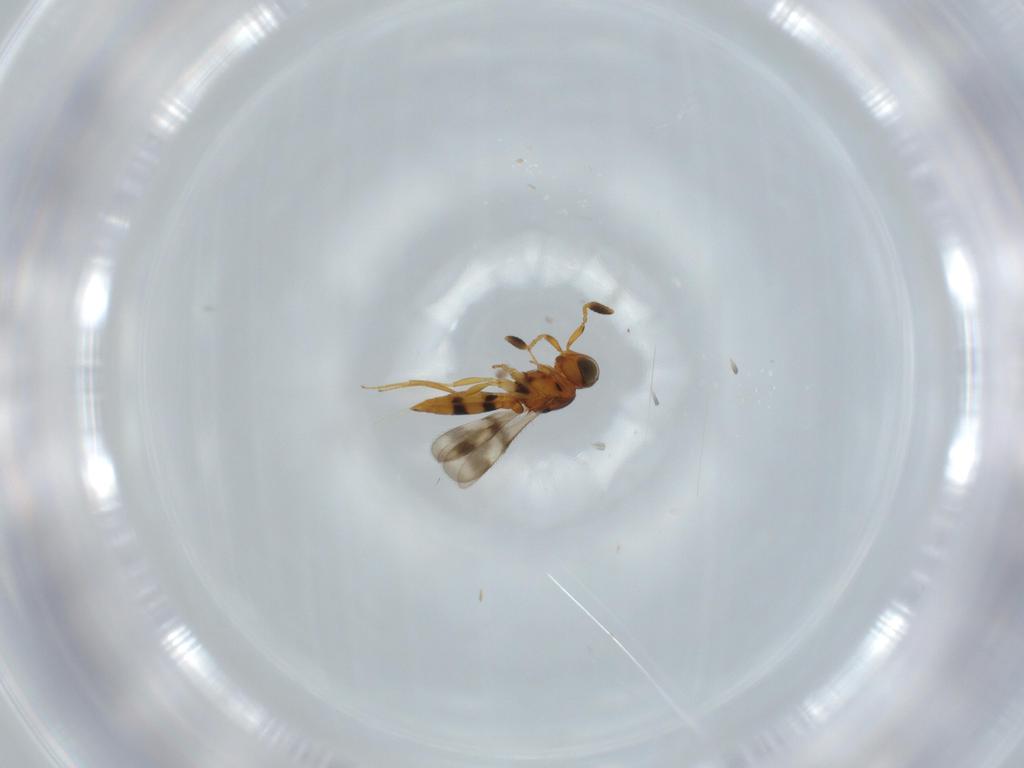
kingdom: Animalia
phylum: Arthropoda
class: Insecta
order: Hymenoptera
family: Scelionidae
